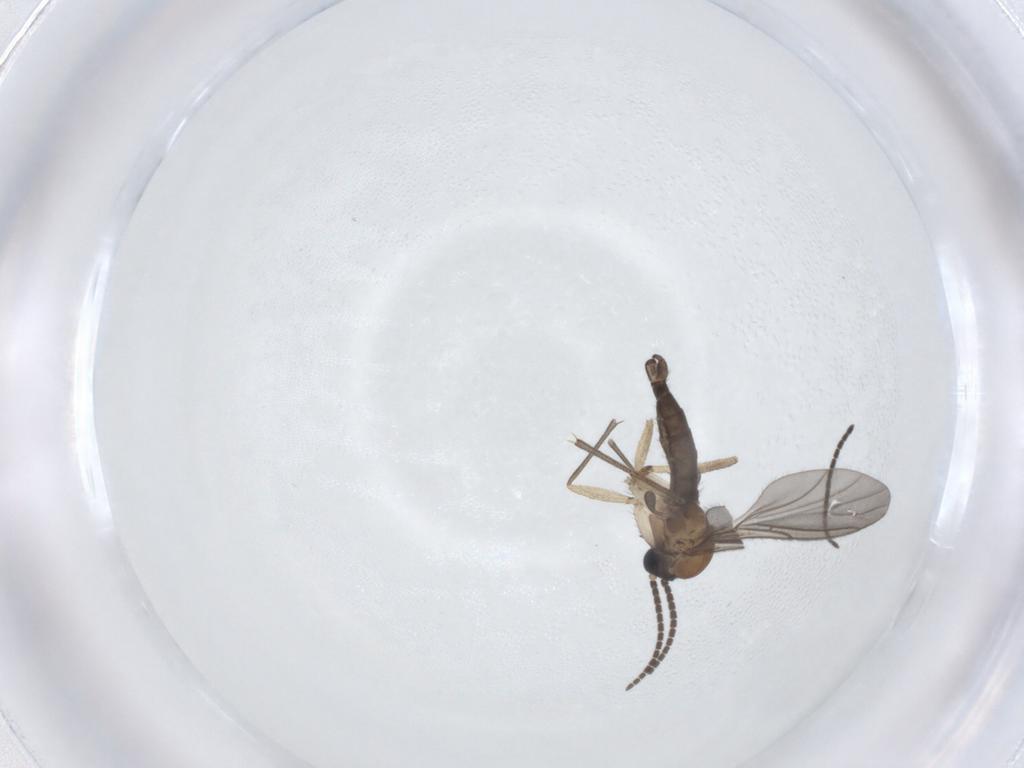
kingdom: Animalia
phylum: Arthropoda
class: Insecta
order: Diptera
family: Sciaridae
